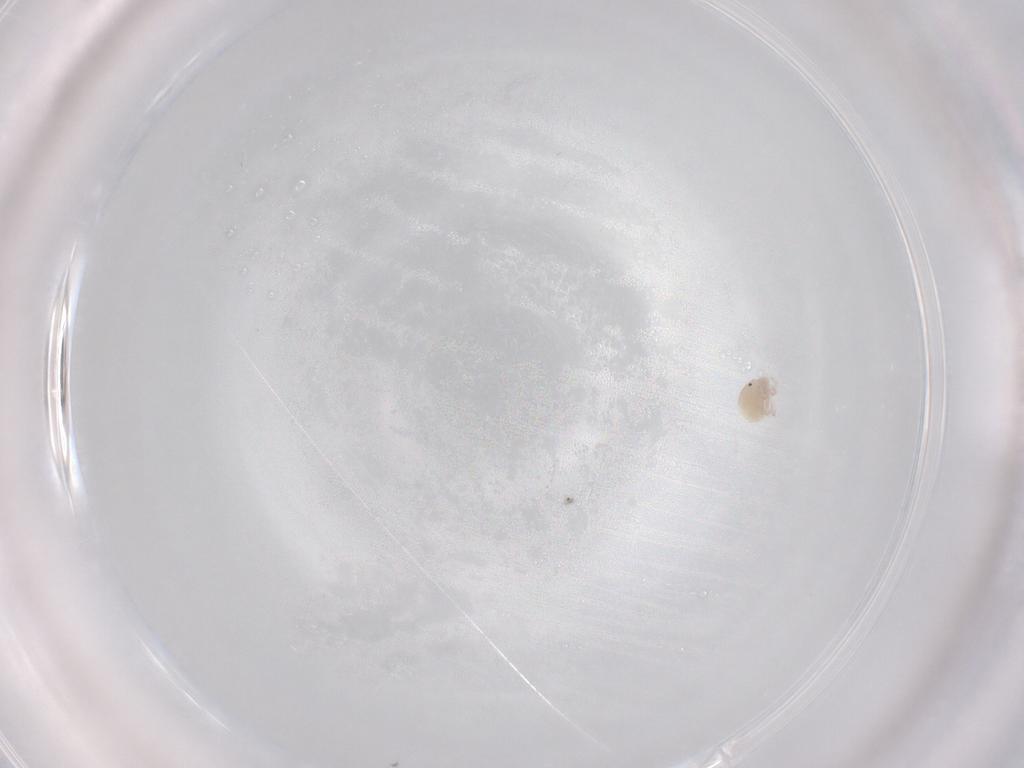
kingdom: Animalia
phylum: Arthropoda
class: Arachnida
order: Trombidiformes
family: Lebertiidae
